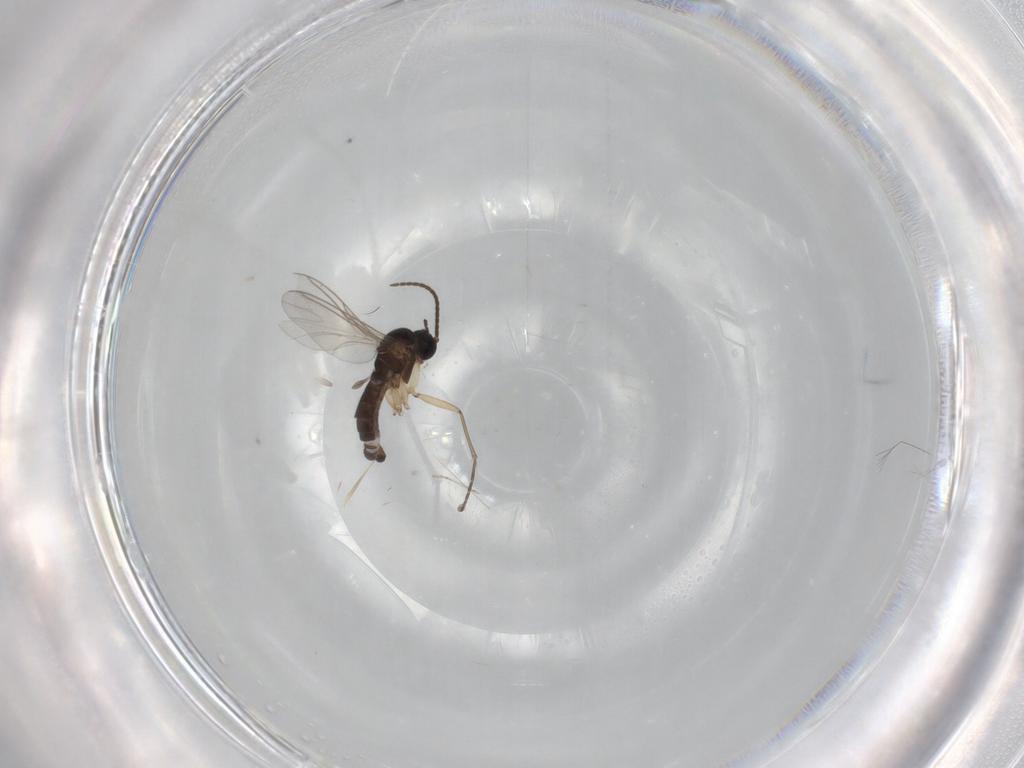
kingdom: Animalia
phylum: Arthropoda
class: Insecta
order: Diptera
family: Sciaridae
